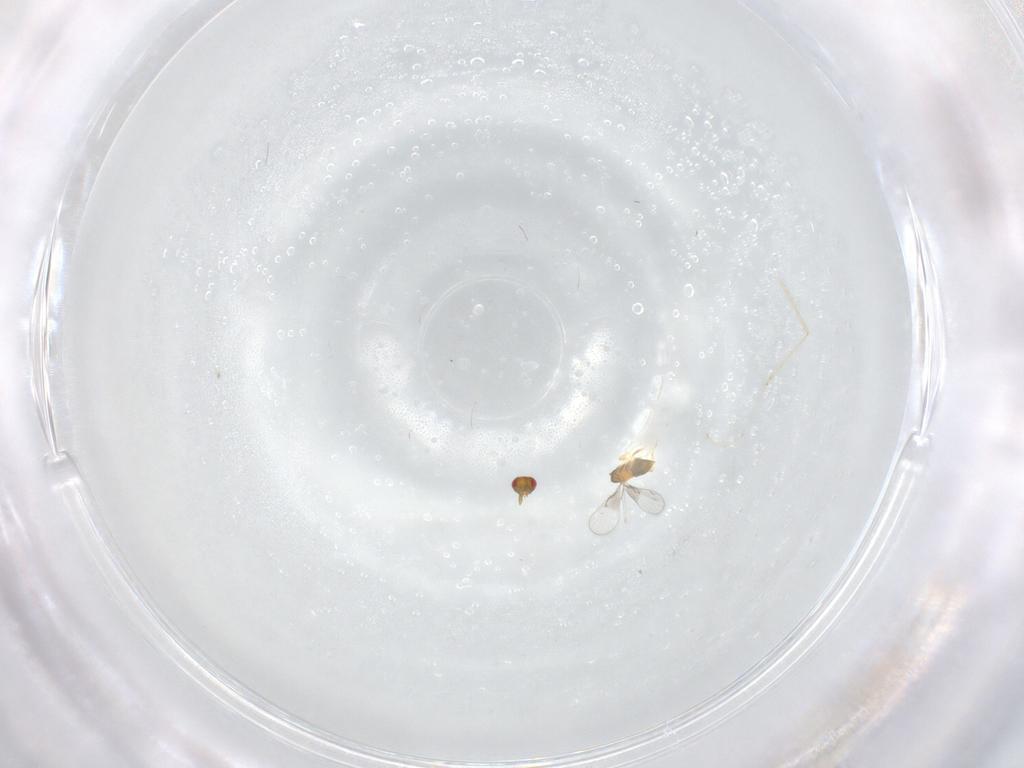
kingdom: Animalia
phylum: Arthropoda
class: Insecta
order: Hymenoptera
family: Trichogrammatidae
